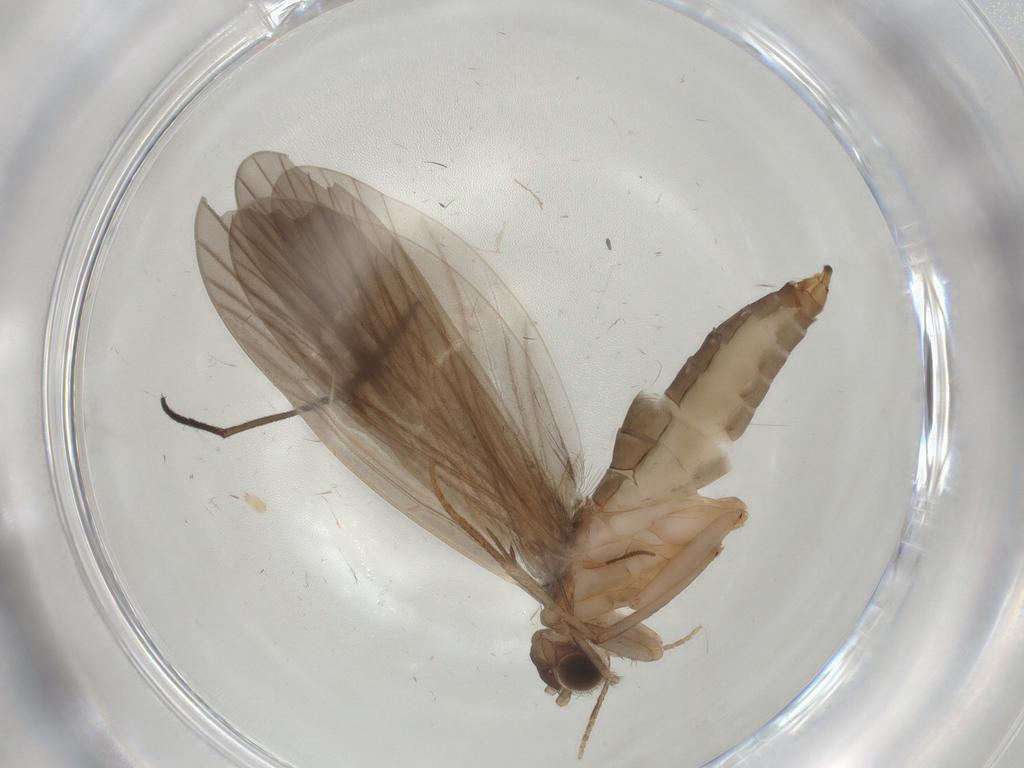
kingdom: Animalia
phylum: Arthropoda
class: Insecta
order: Trichoptera
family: Philopotamidae
